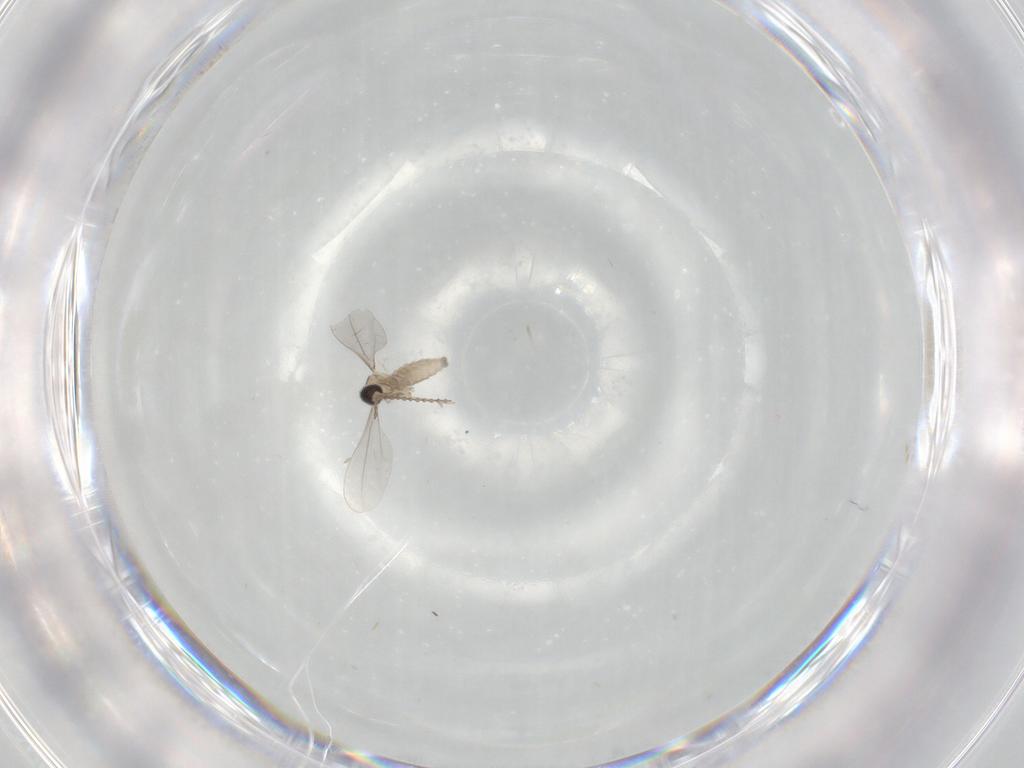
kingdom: Animalia
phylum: Arthropoda
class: Insecta
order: Diptera
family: Cecidomyiidae
